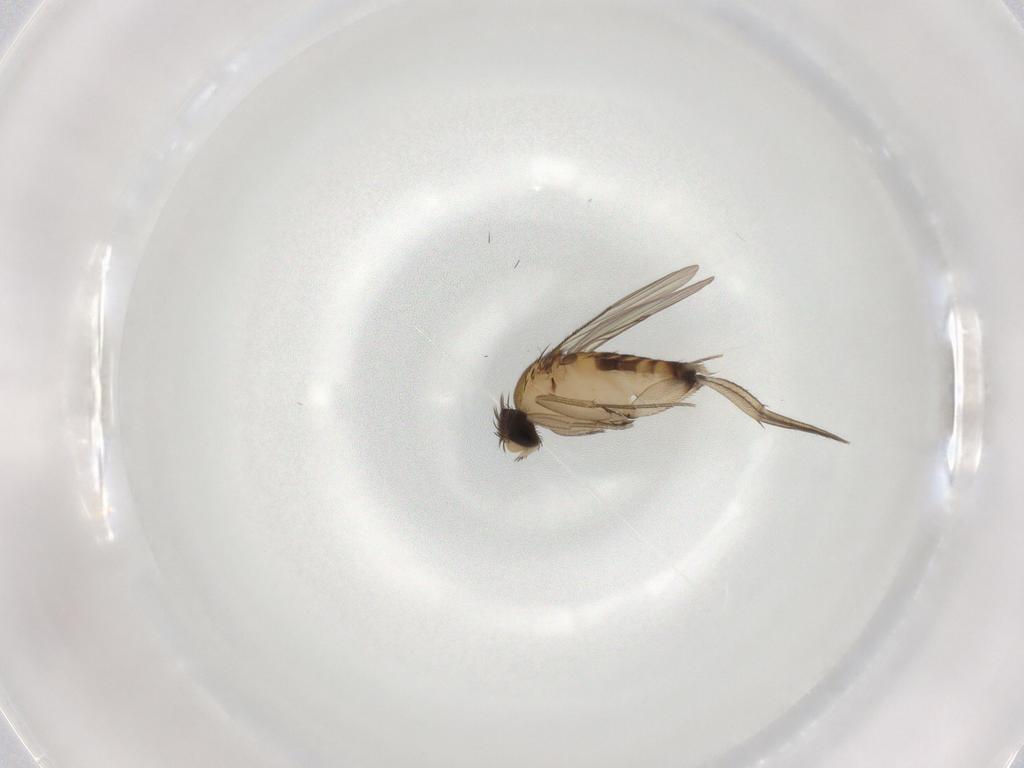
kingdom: Animalia
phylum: Arthropoda
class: Insecta
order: Diptera
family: Phoridae
